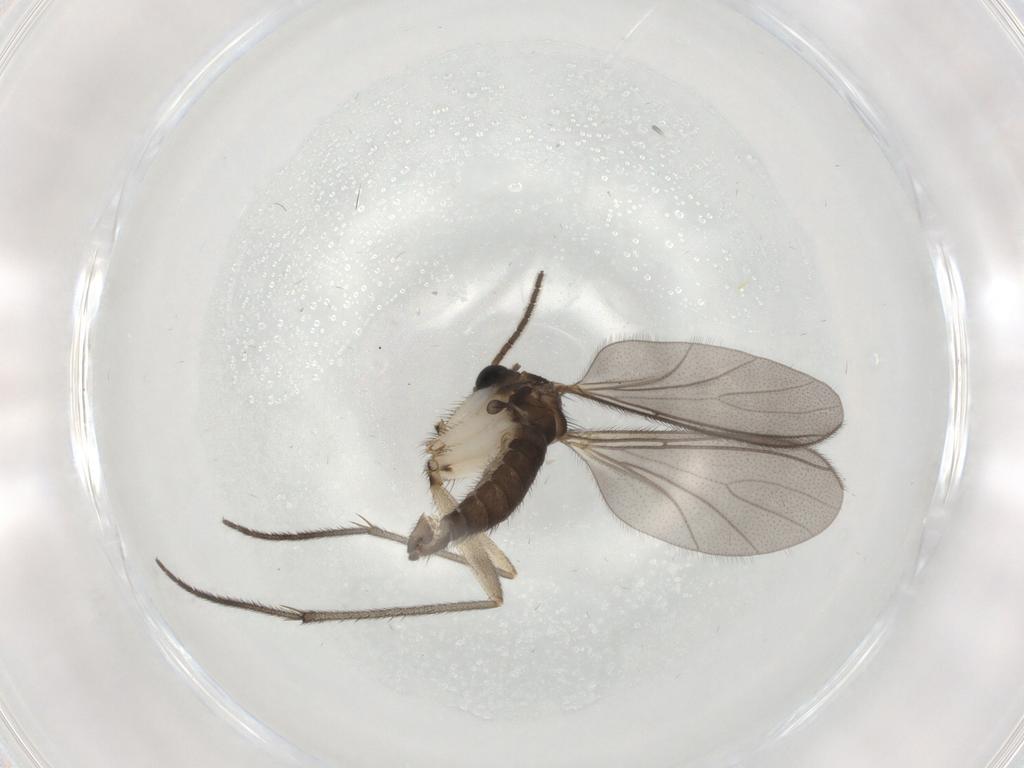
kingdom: Animalia
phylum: Arthropoda
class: Insecta
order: Diptera
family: Sciaridae
